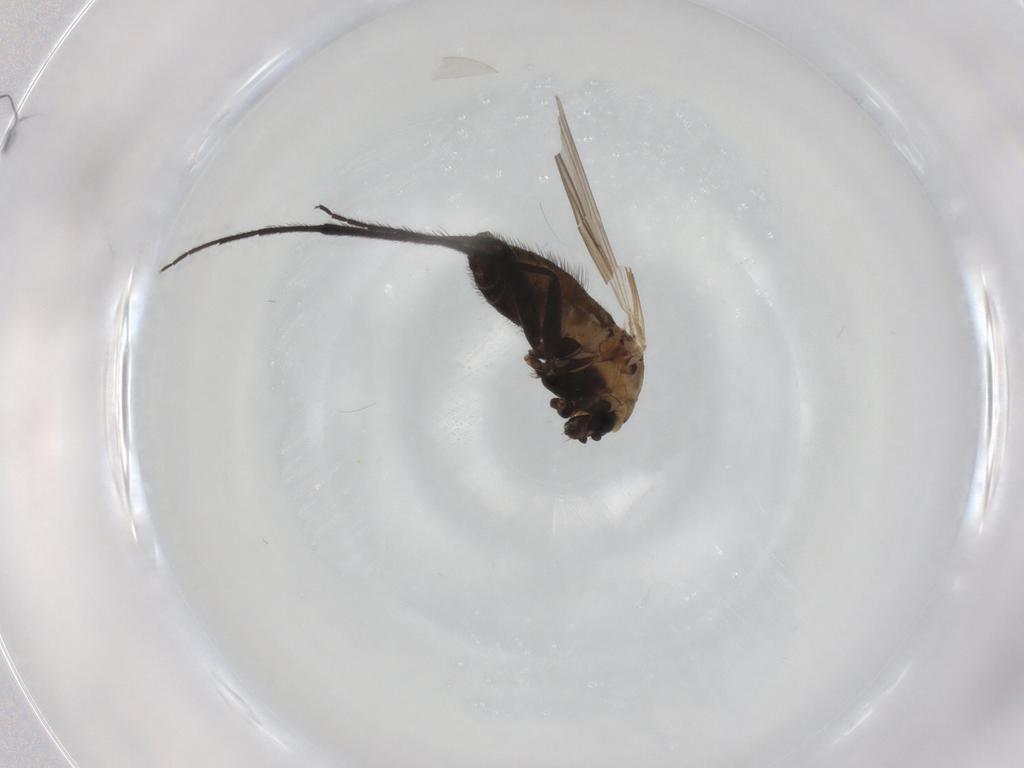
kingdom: Animalia
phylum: Arthropoda
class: Insecta
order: Diptera
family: Chironomidae
